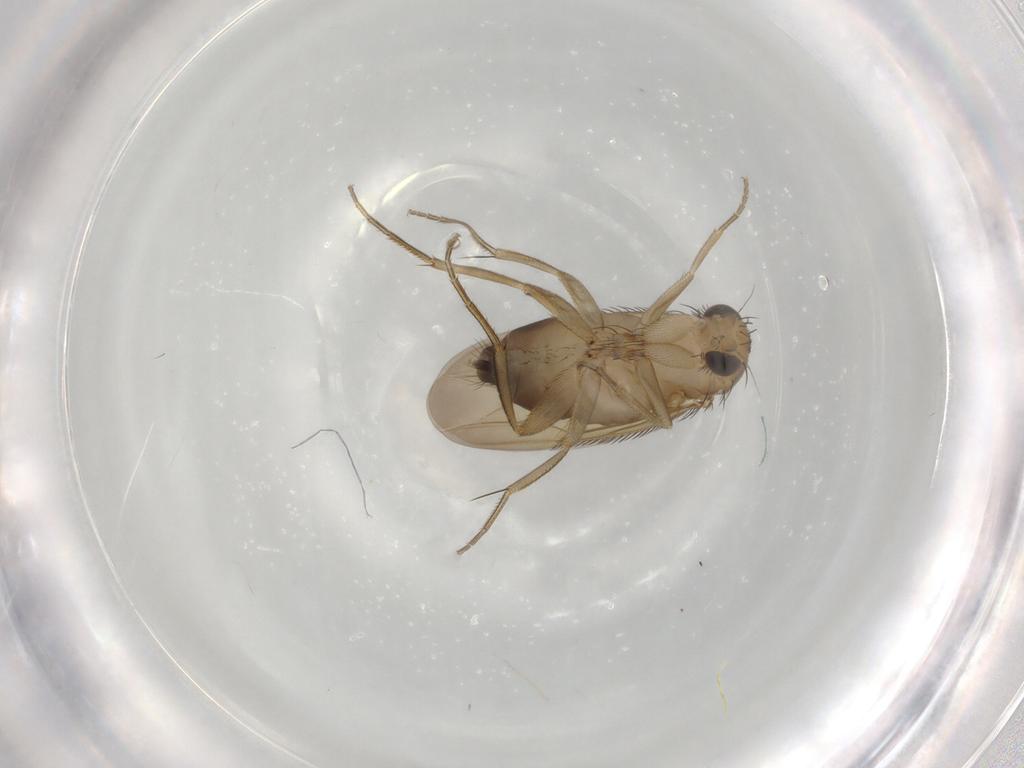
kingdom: Animalia
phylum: Arthropoda
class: Insecta
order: Diptera
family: Phoridae
